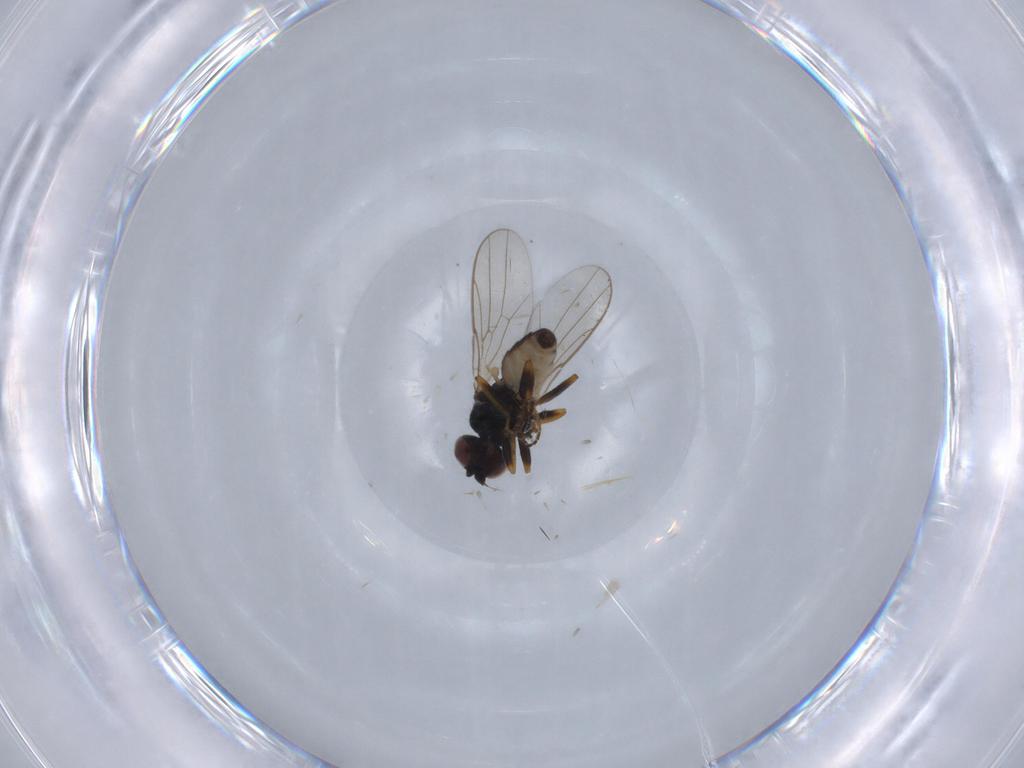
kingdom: Animalia
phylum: Arthropoda
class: Insecta
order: Diptera
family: Chloropidae
